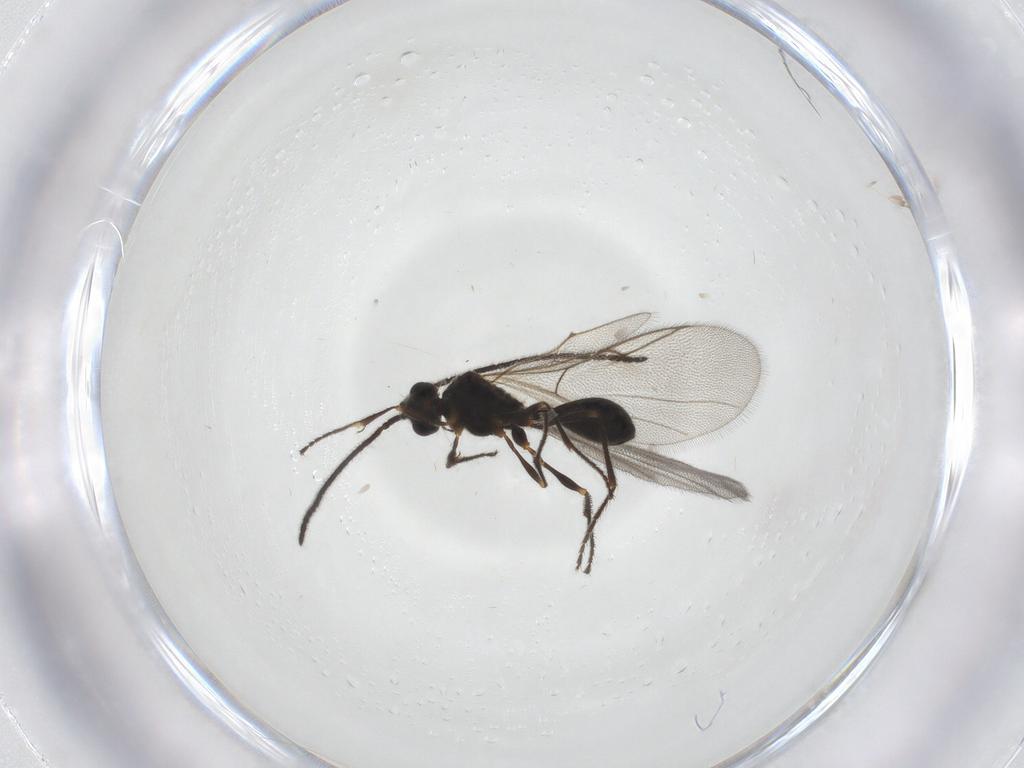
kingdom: Animalia
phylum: Arthropoda
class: Insecta
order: Hymenoptera
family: Diapriidae
